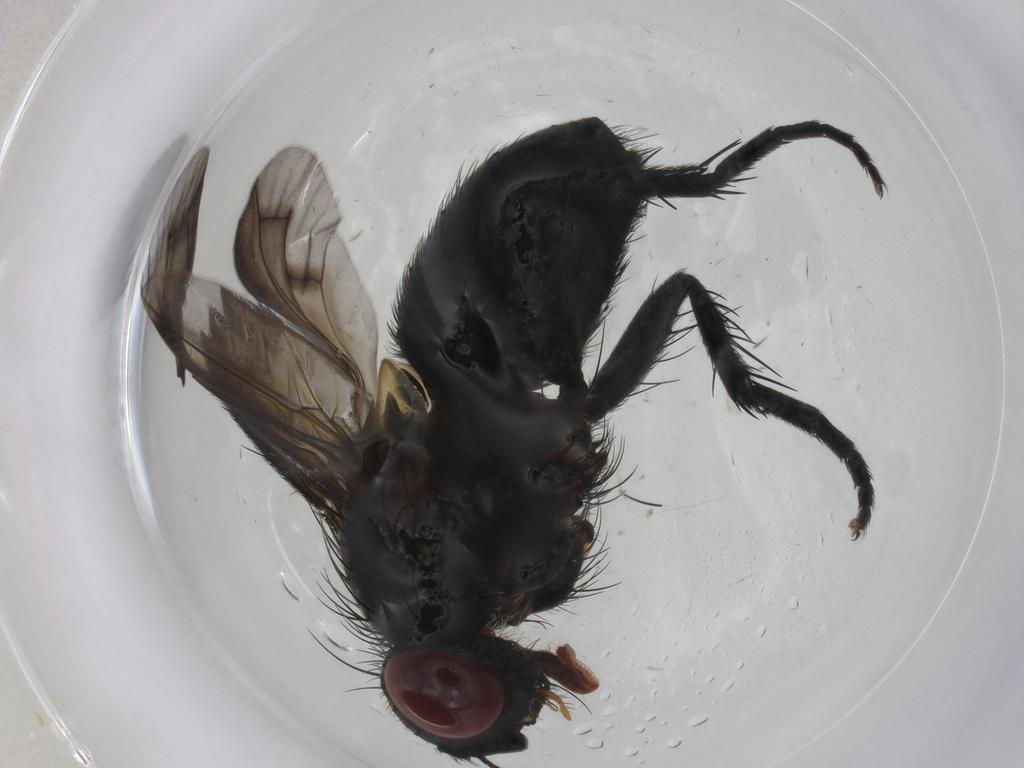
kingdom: Animalia
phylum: Arthropoda
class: Insecta
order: Diptera
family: Tachinidae
